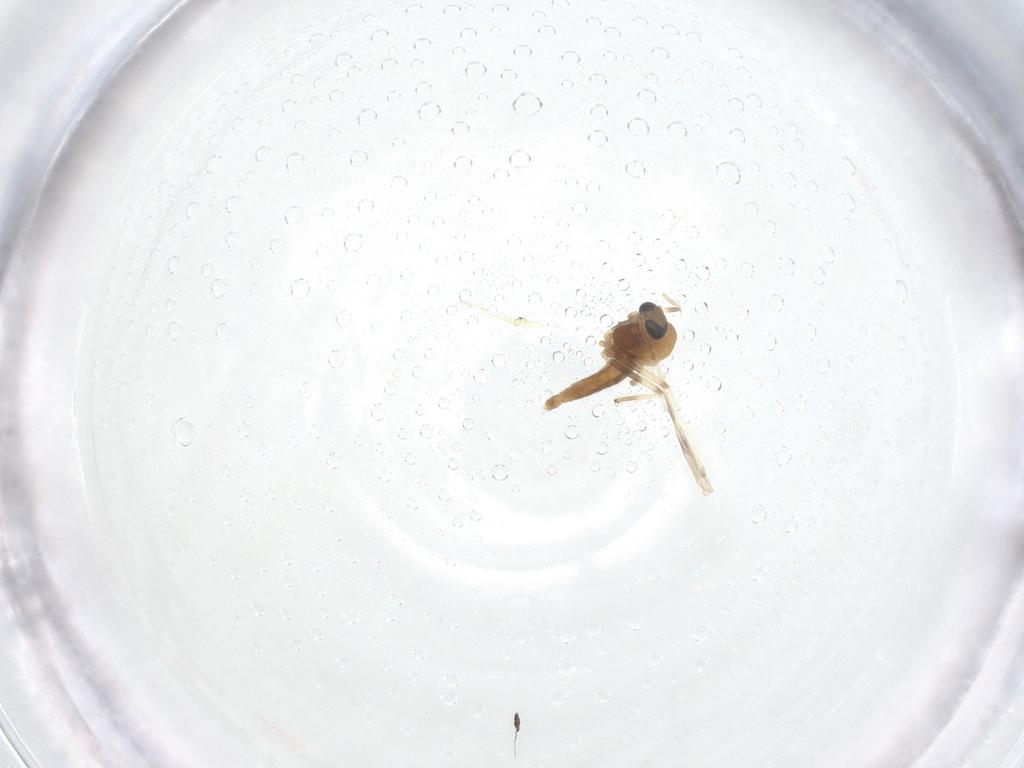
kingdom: Animalia
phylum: Arthropoda
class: Insecta
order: Diptera
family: Chironomidae
